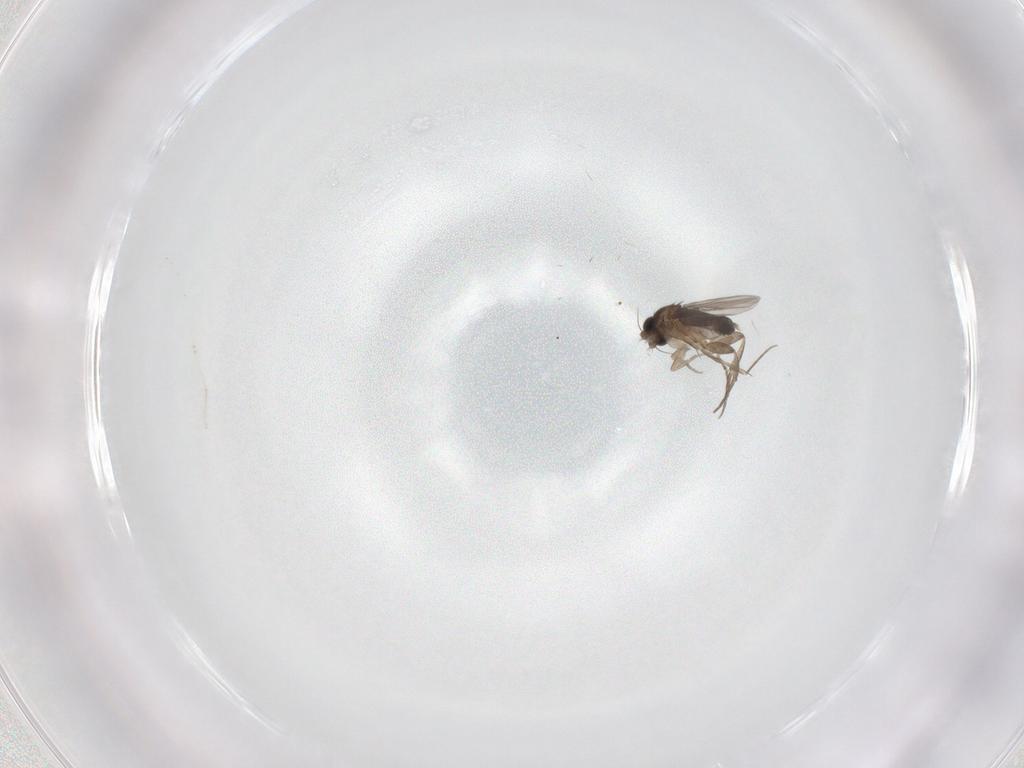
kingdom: Animalia
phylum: Arthropoda
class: Insecta
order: Diptera
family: Phoridae
